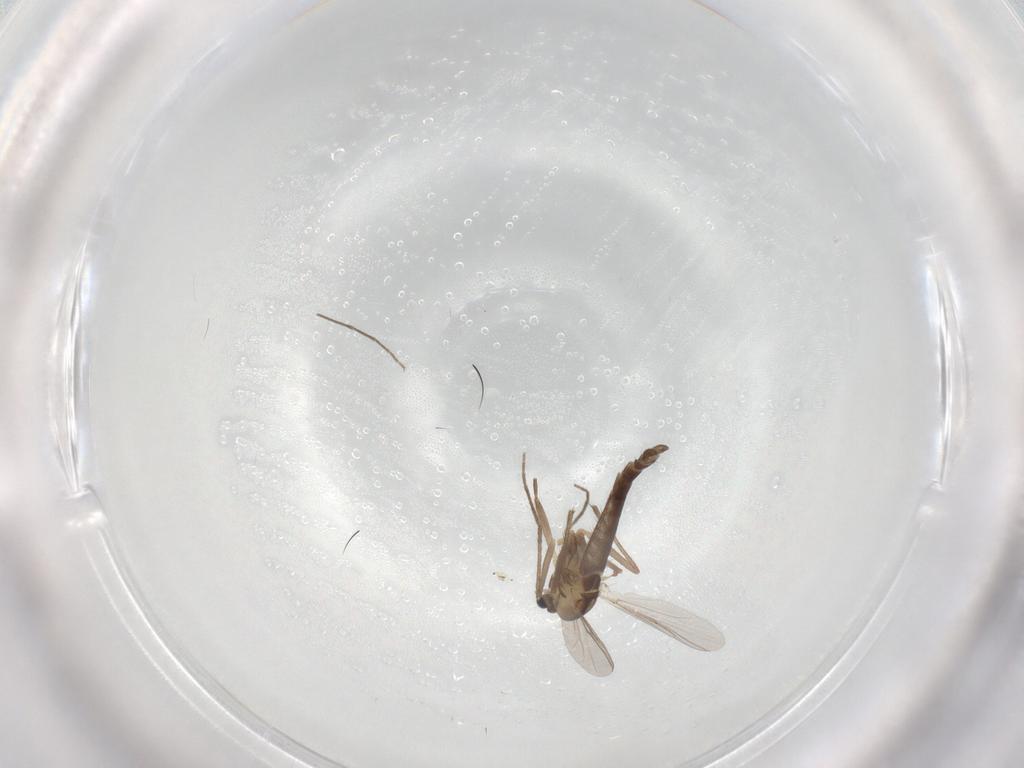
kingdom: Animalia
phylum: Arthropoda
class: Insecta
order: Diptera
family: Chironomidae
